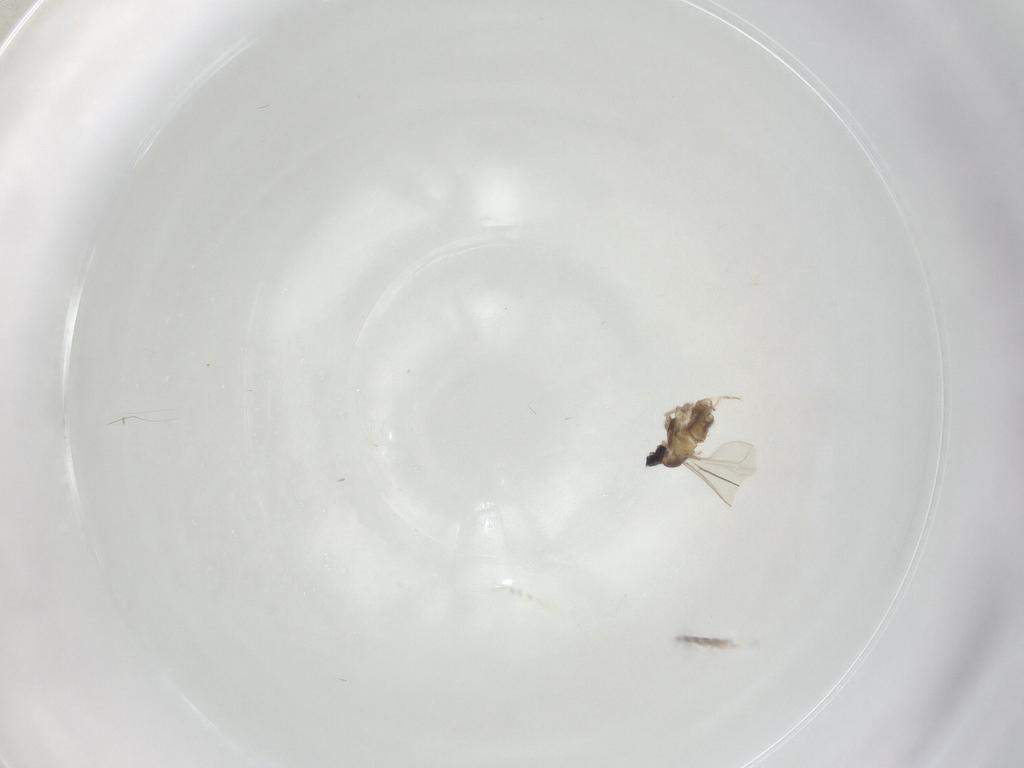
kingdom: Animalia
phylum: Arthropoda
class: Insecta
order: Diptera
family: Cecidomyiidae
